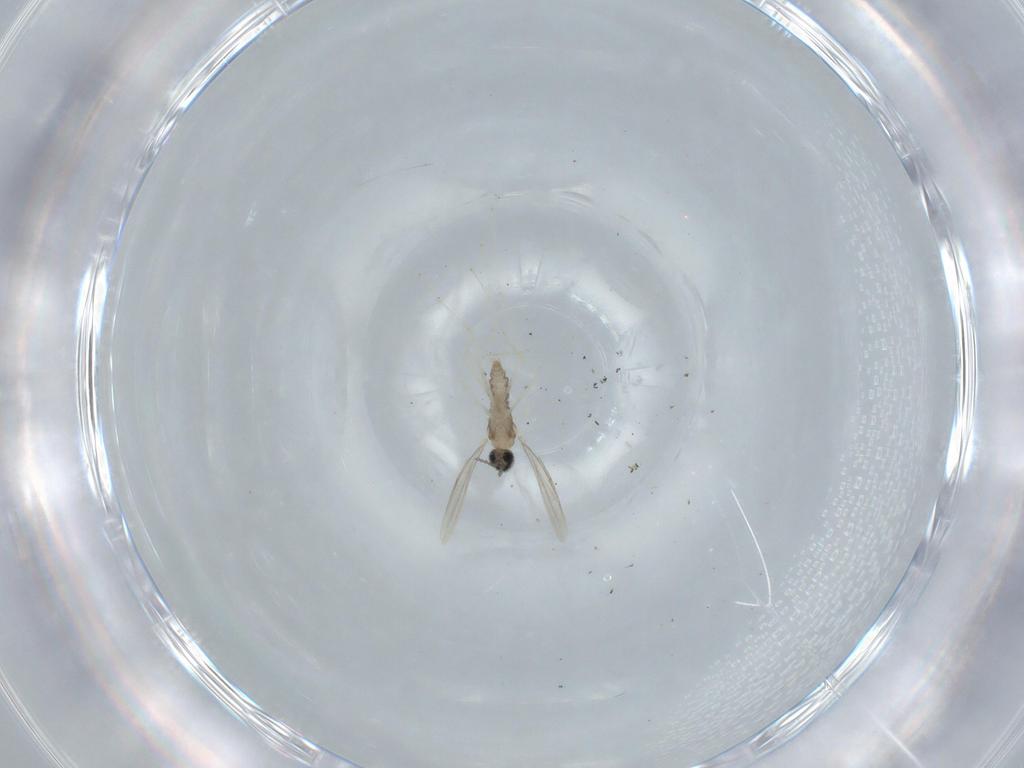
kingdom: Animalia
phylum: Arthropoda
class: Insecta
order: Diptera
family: Cecidomyiidae
